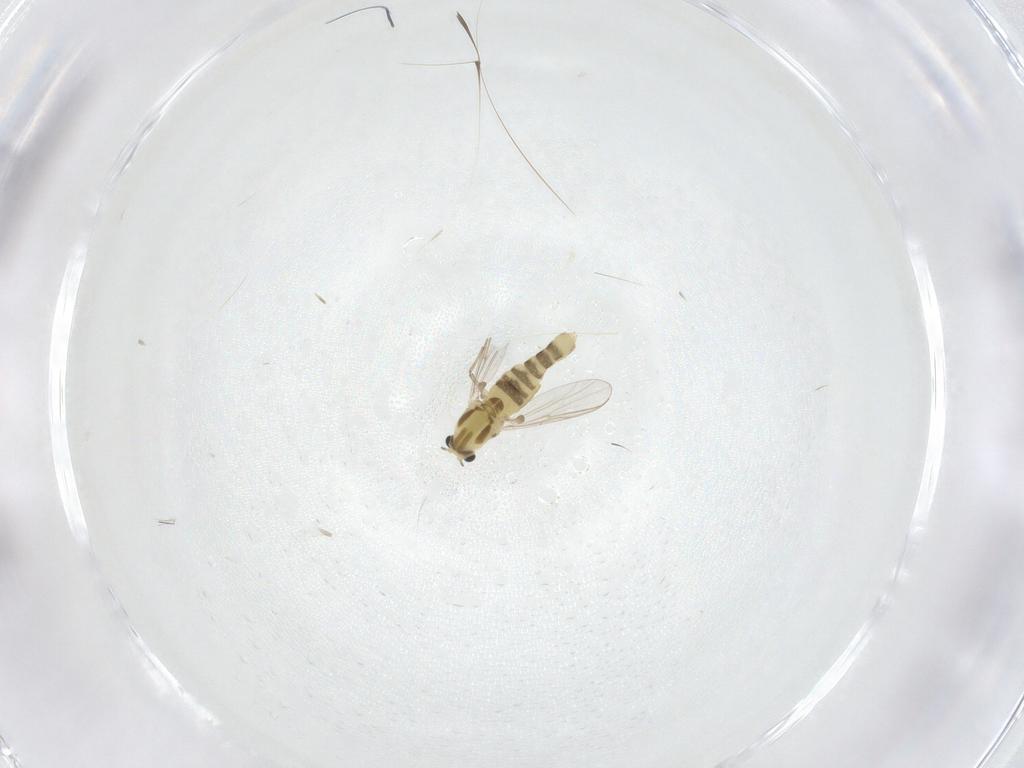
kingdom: Animalia
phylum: Arthropoda
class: Insecta
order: Diptera
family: Chironomidae
